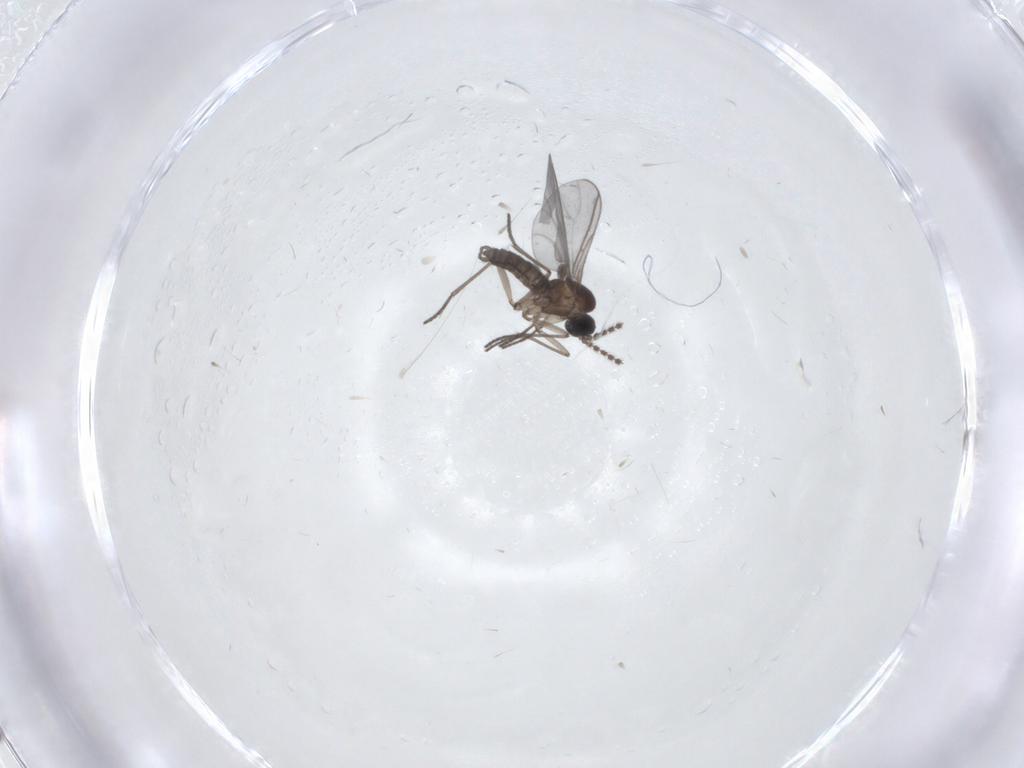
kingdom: Animalia
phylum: Arthropoda
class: Insecta
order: Diptera
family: Sciaridae
